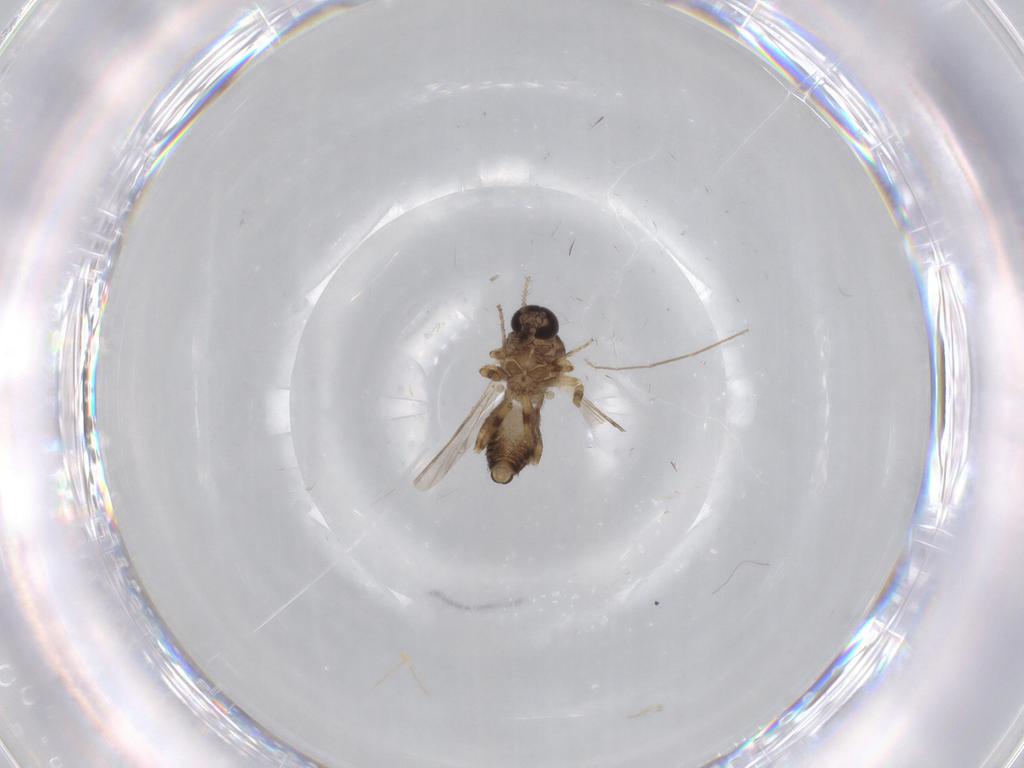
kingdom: Animalia
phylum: Arthropoda
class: Insecta
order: Diptera
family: Ceratopogonidae
